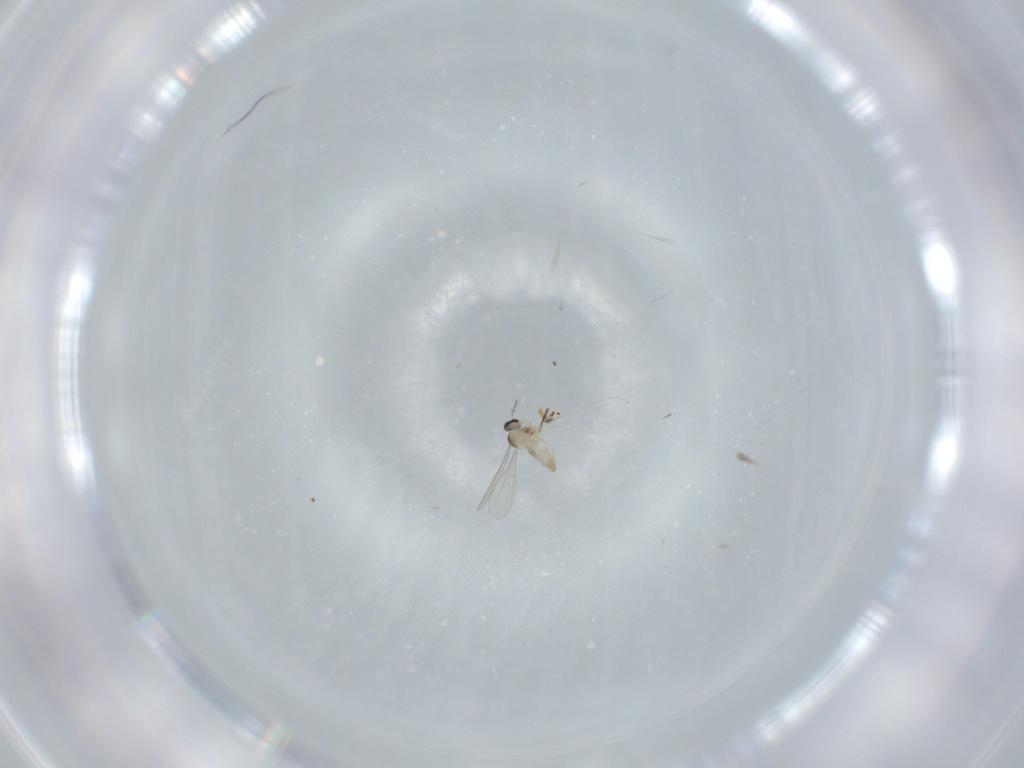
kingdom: Animalia
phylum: Arthropoda
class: Insecta
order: Diptera
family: Cecidomyiidae
